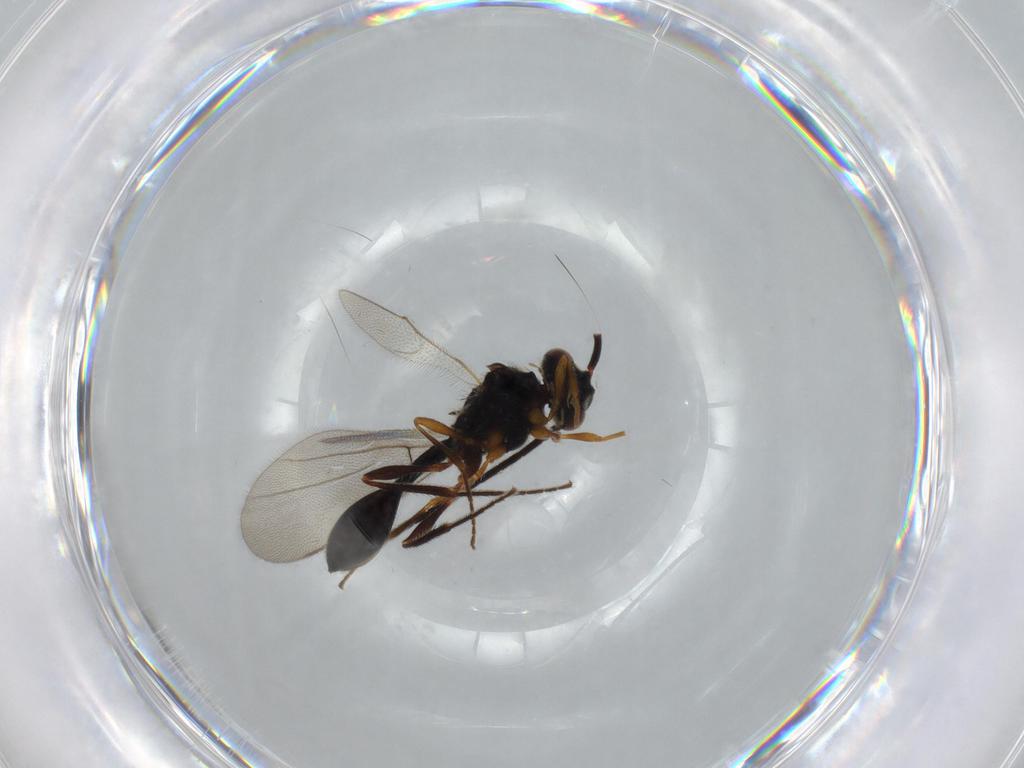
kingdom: Animalia
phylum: Arthropoda
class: Insecta
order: Hymenoptera
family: Diapriidae
